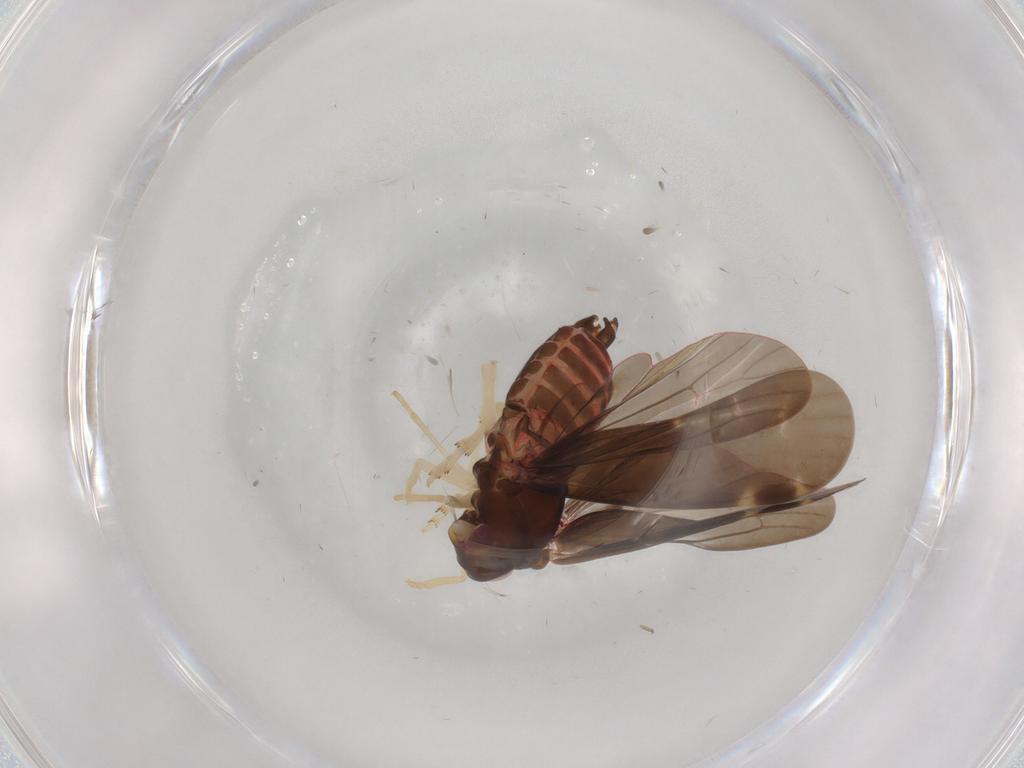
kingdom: Animalia
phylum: Arthropoda
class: Insecta
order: Hemiptera
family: Achilidae
